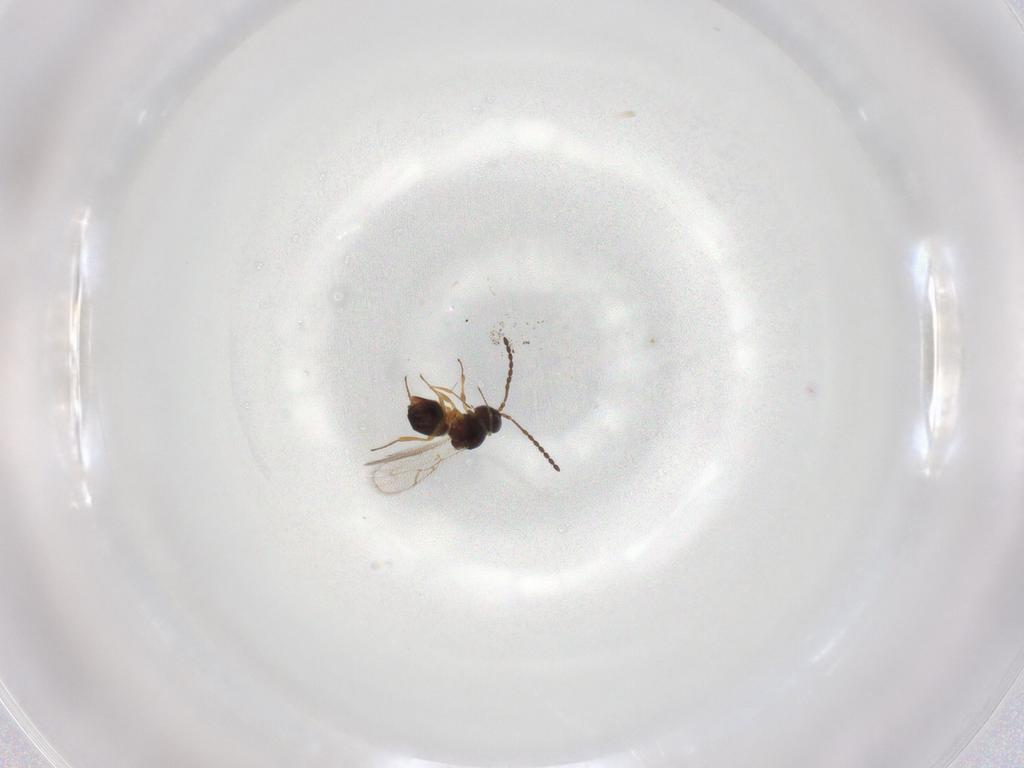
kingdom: Animalia
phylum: Arthropoda
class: Insecta
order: Hymenoptera
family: Figitidae
